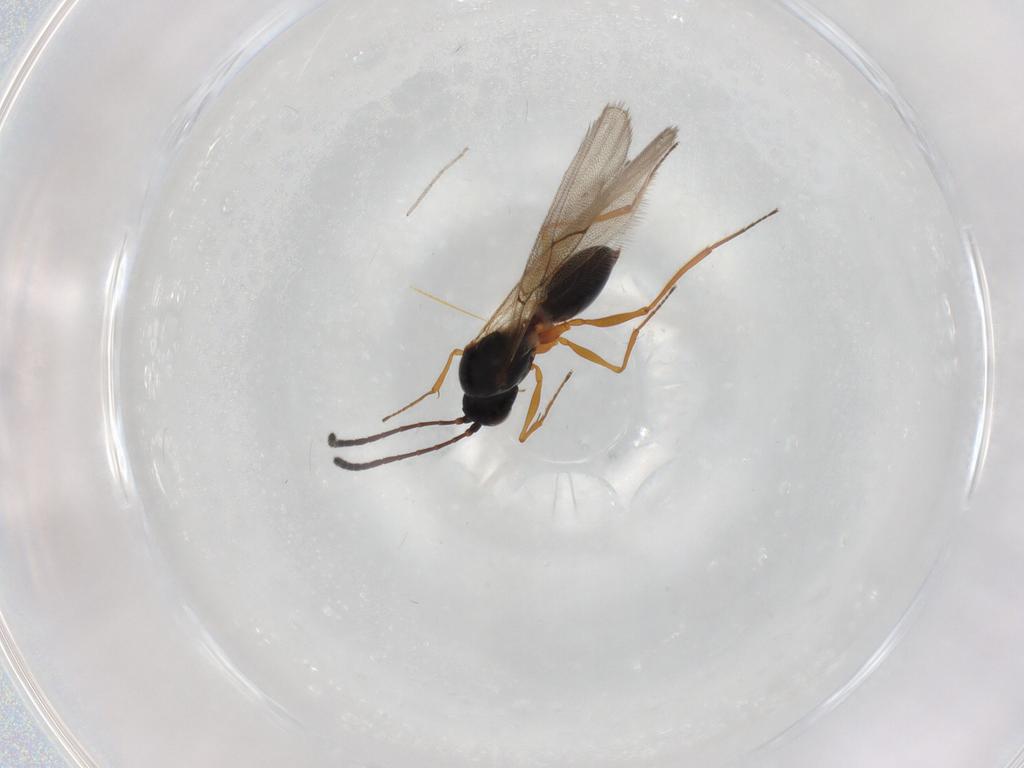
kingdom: Animalia
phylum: Arthropoda
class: Insecta
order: Hymenoptera
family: Figitidae
